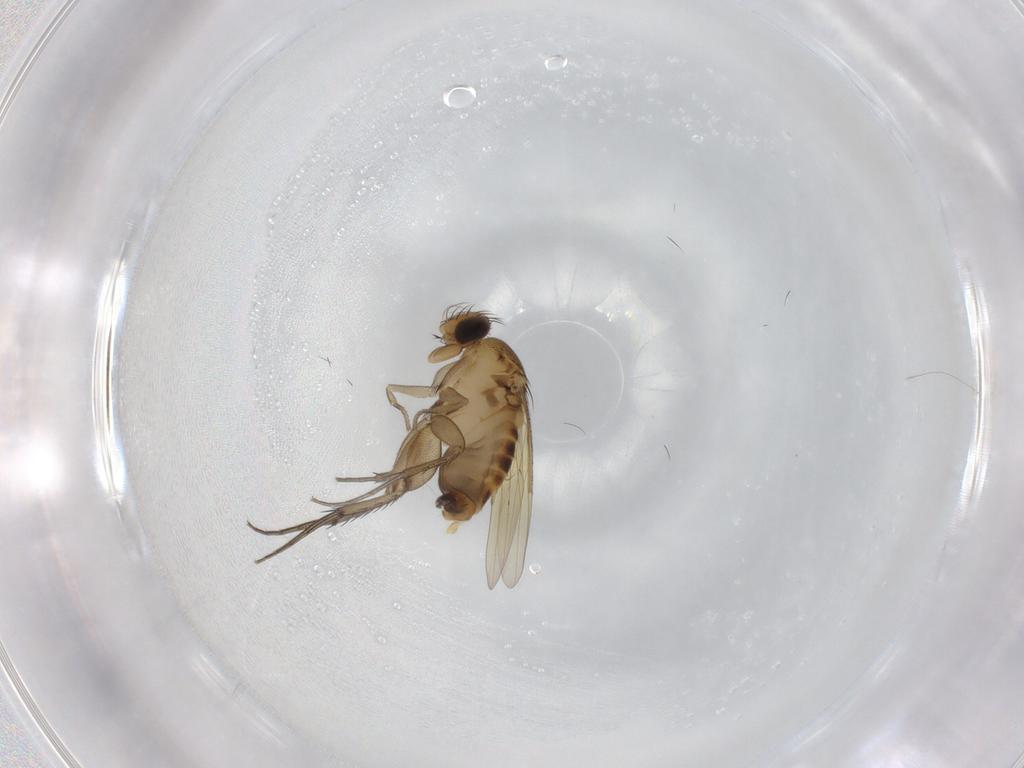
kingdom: Animalia
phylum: Arthropoda
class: Insecta
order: Diptera
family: Phoridae
